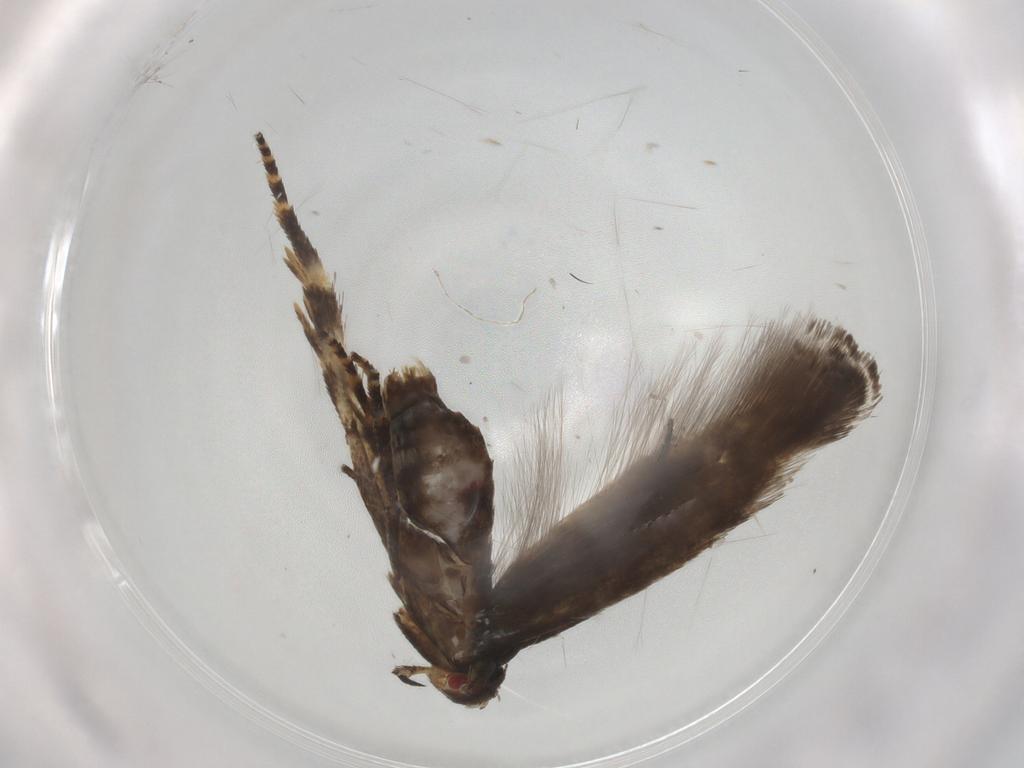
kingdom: Animalia
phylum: Arthropoda
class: Insecta
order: Lepidoptera
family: Momphidae
